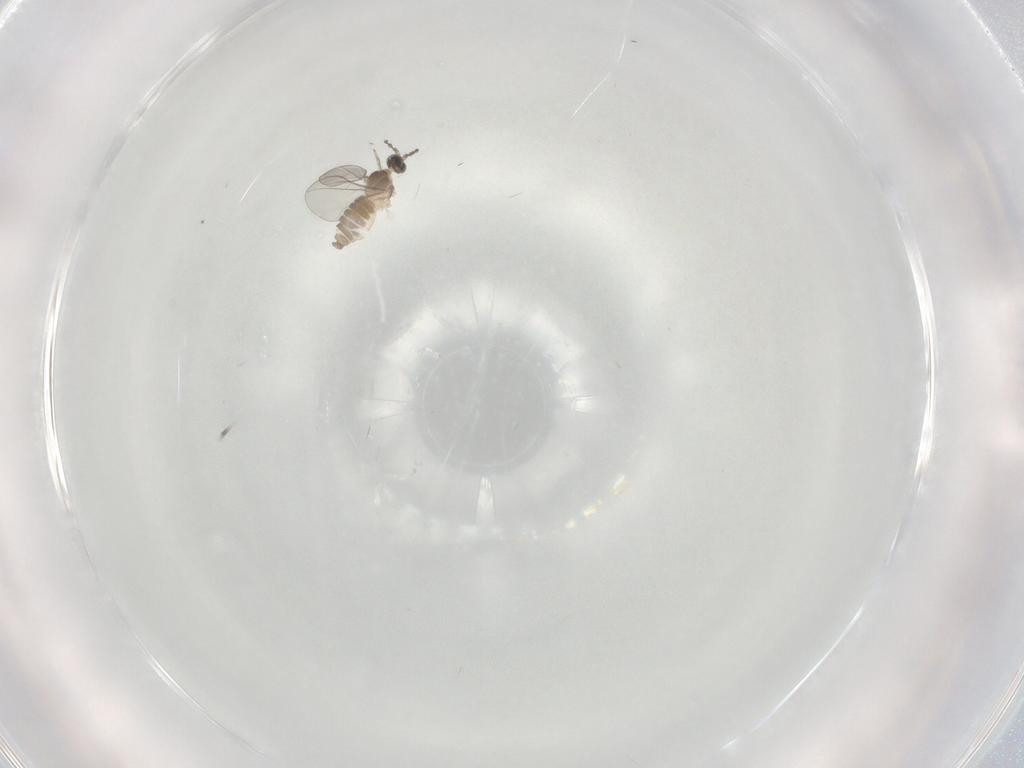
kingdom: Animalia
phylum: Arthropoda
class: Insecta
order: Diptera
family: Cecidomyiidae
